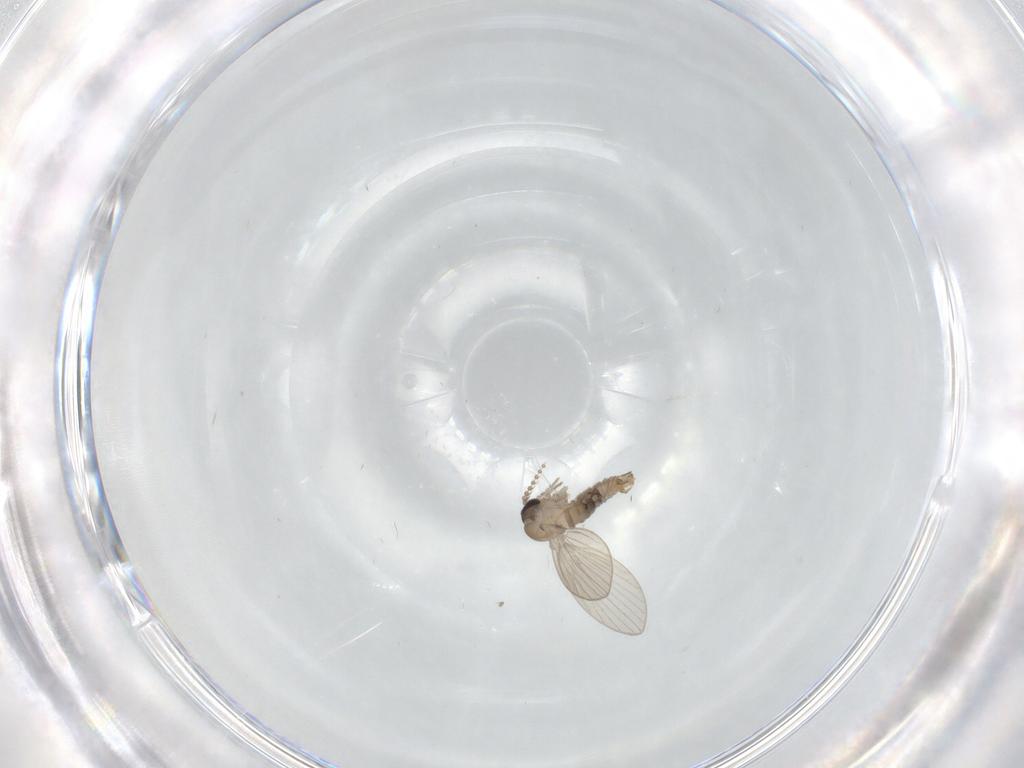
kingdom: Animalia
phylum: Arthropoda
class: Insecta
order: Diptera
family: Psychodidae
